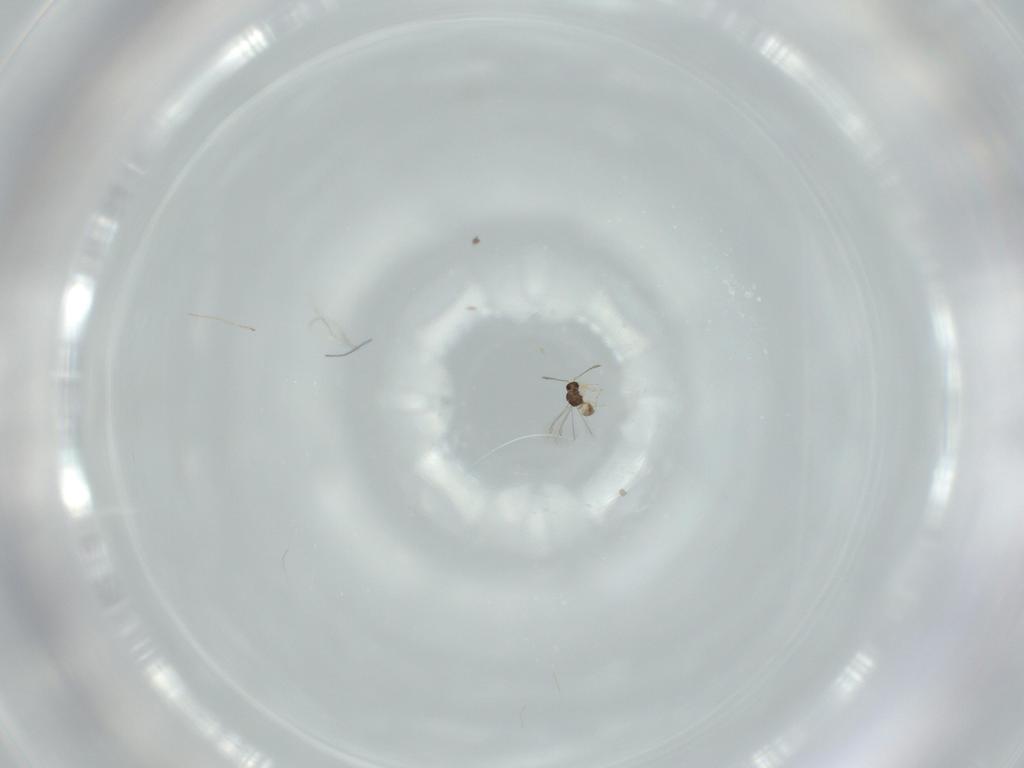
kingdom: Animalia
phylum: Arthropoda
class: Insecta
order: Hymenoptera
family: Mymaridae
